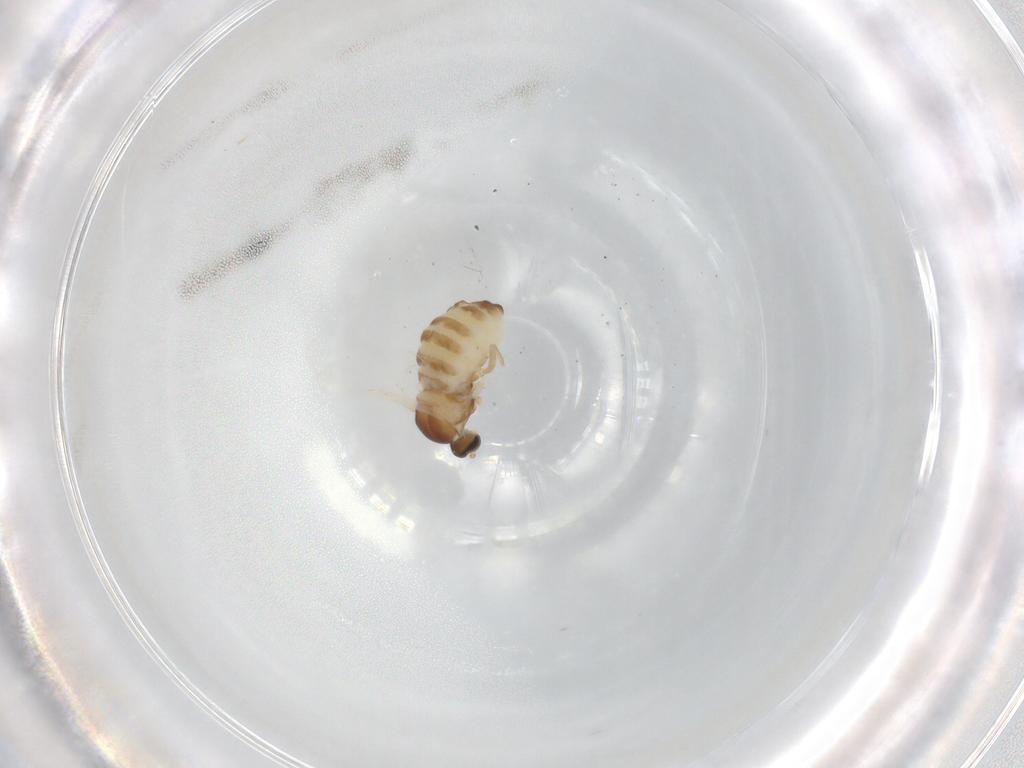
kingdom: Animalia
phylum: Arthropoda
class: Insecta
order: Diptera
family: Cecidomyiidae
